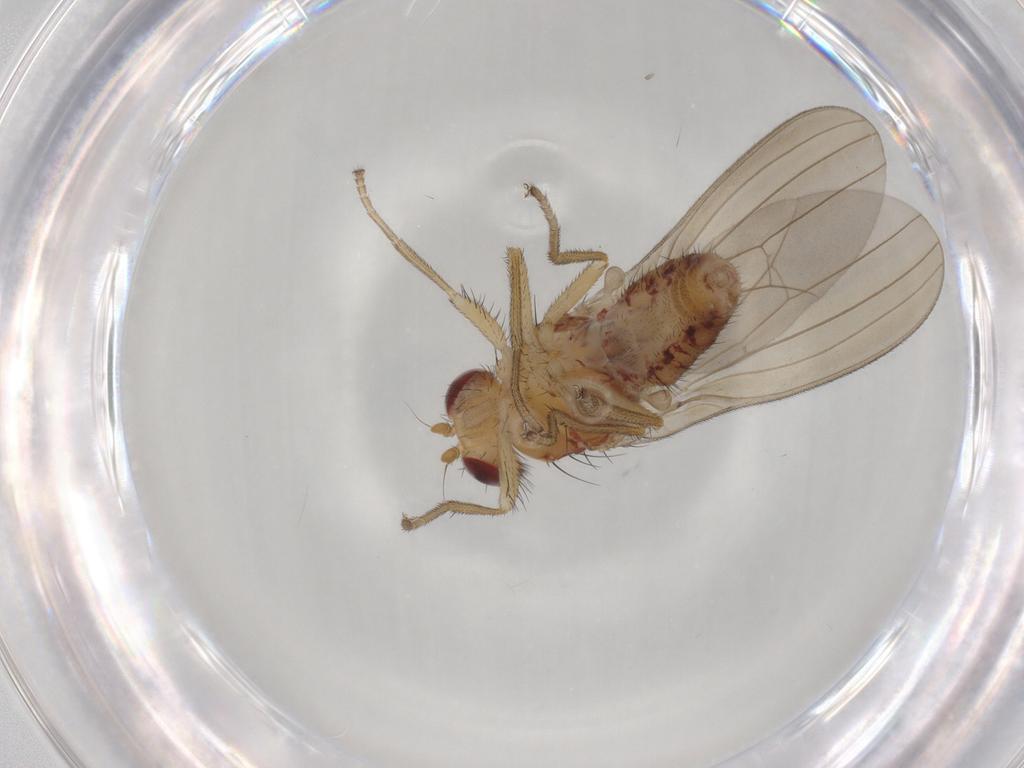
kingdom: Animalia
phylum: Arthropoda
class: Insecta
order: Diptera
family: Natalimyzidae
